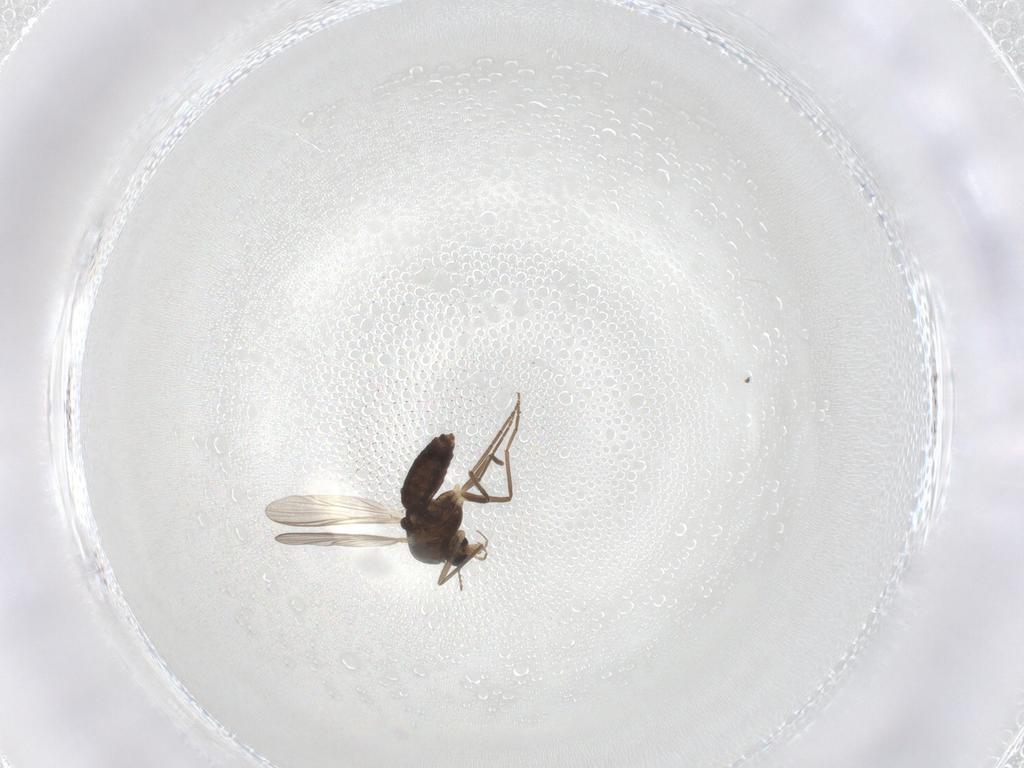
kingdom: Animalia
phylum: Arthropoda
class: Insecta
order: Diptera
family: Chironomidae
